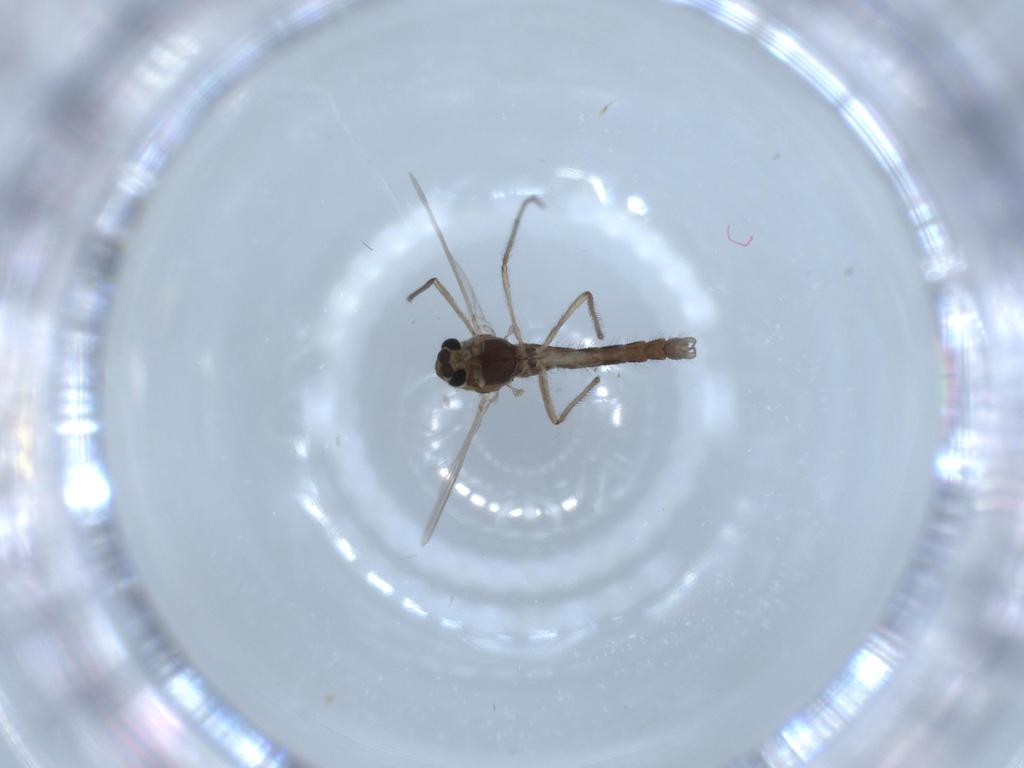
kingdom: Animalia
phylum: Arthropoda
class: Insecta
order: Diptera
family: Chironomidae
